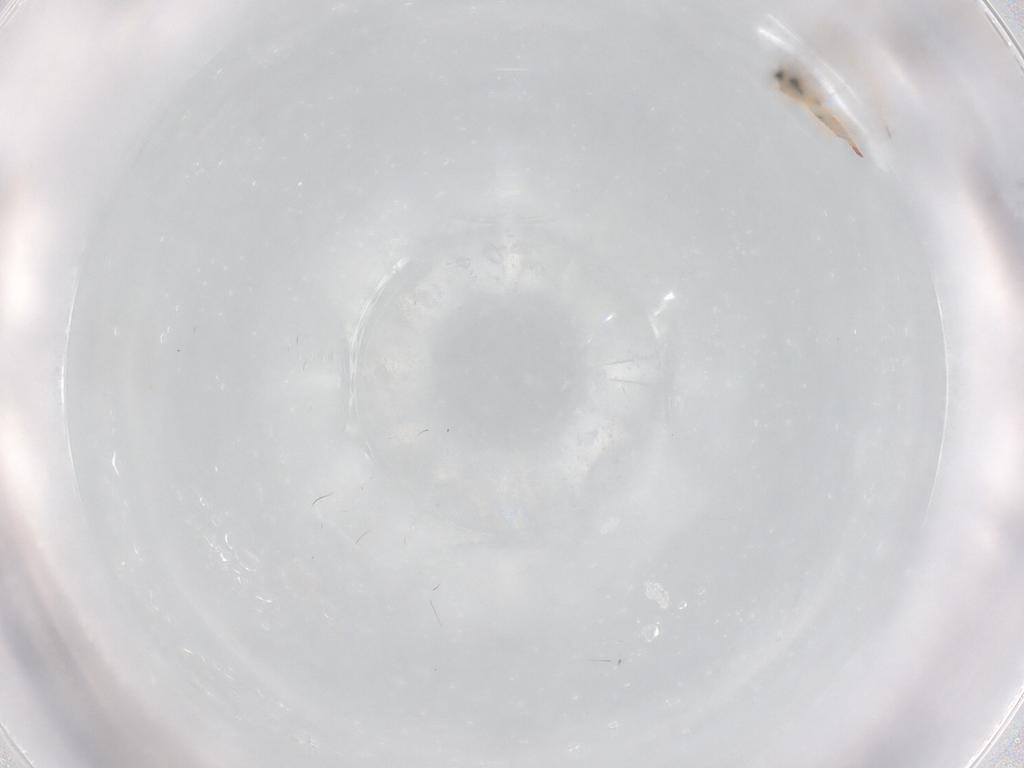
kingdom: Animalia
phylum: Arthropoda
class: Insecta
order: Thysanoptera
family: Aeolothripidae
